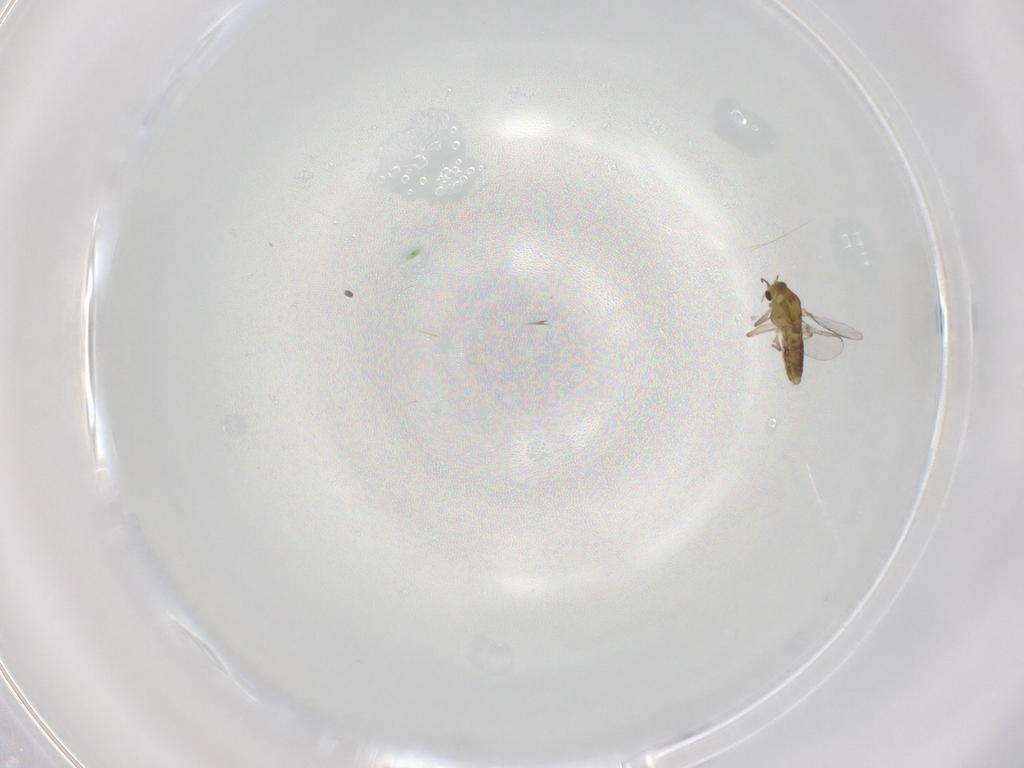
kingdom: Animalia
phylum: Arthropoda
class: Insecta
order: Diptera
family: Chironomidae
